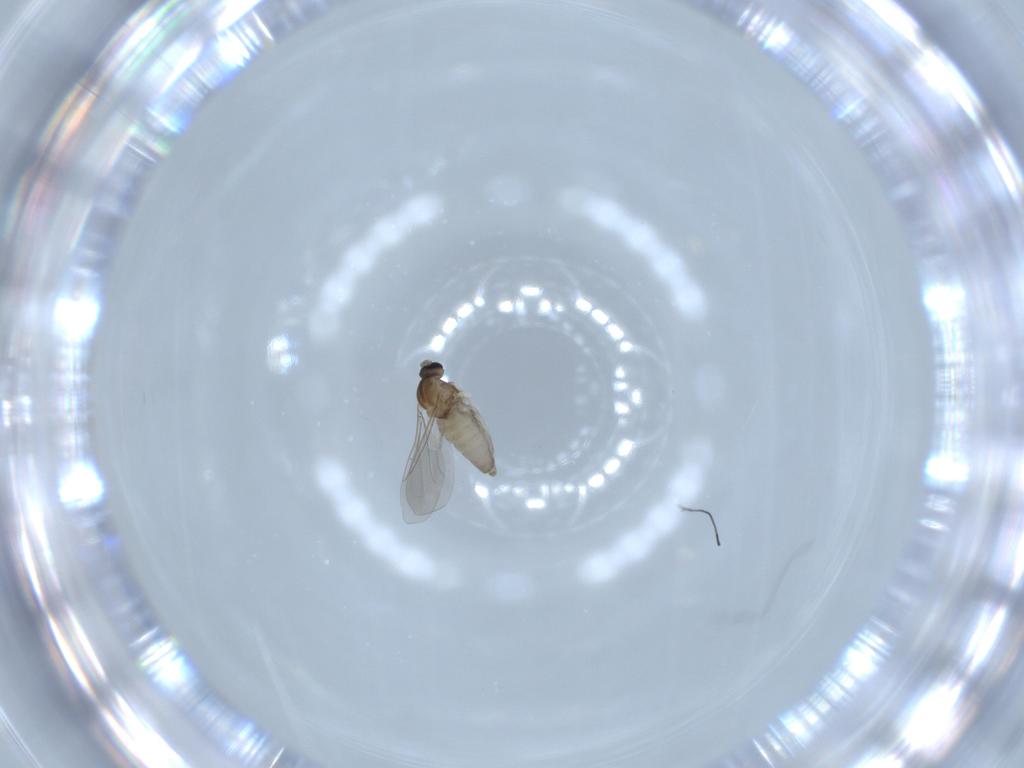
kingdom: Animalia
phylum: Arthropoda
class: Insecta
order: Diptera
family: Cecidomyiidae
